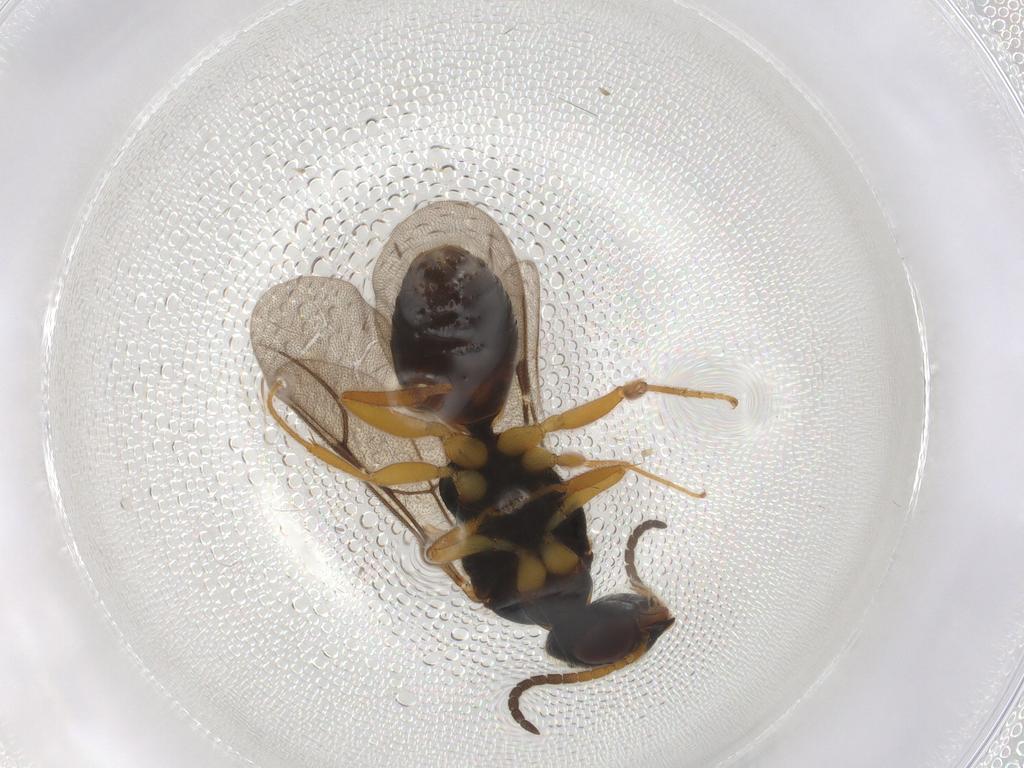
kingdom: Animalia
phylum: Arthropoda
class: Insecta
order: Hymenoptera
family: Bethylidae
